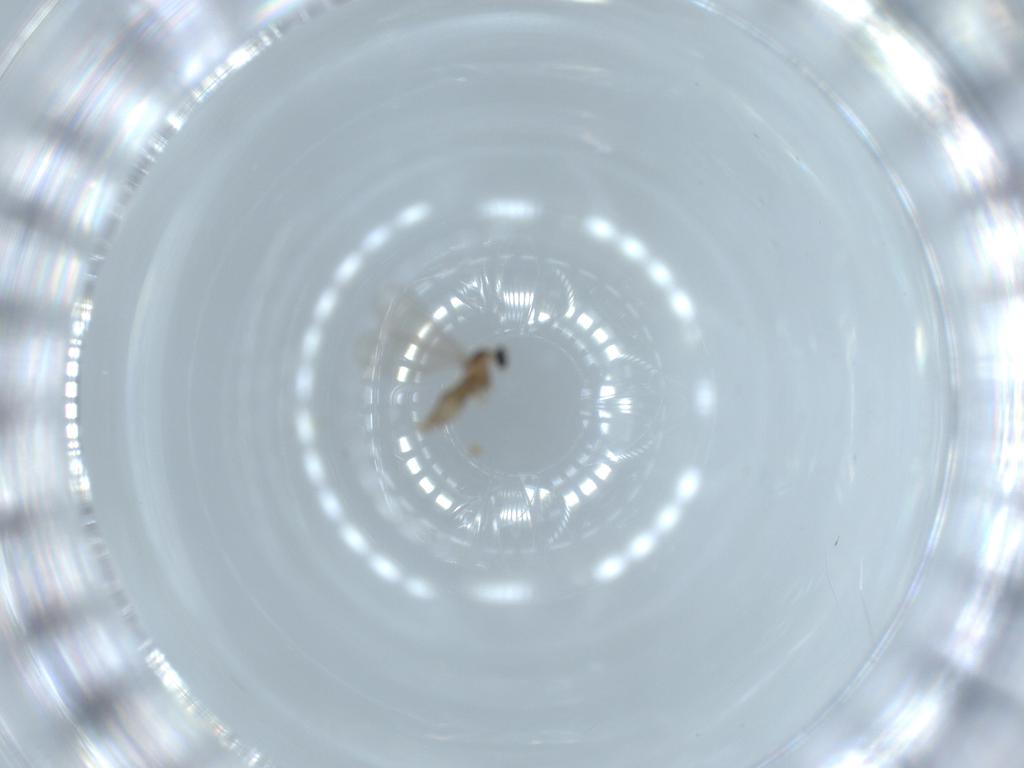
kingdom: Animalia
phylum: Arthropoda
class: Insecta
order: Diptera
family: Cecidomyiidae
